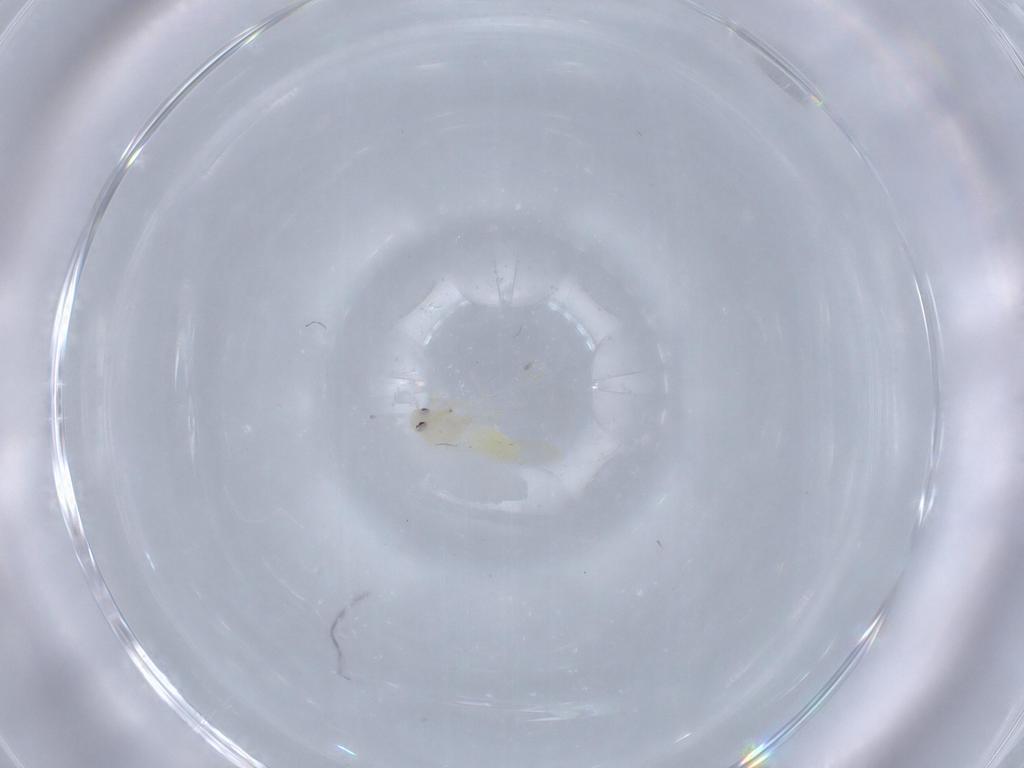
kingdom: Animalia
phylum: Arthropoda
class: Insecta
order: Hemiptera
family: Aleyrodidae
